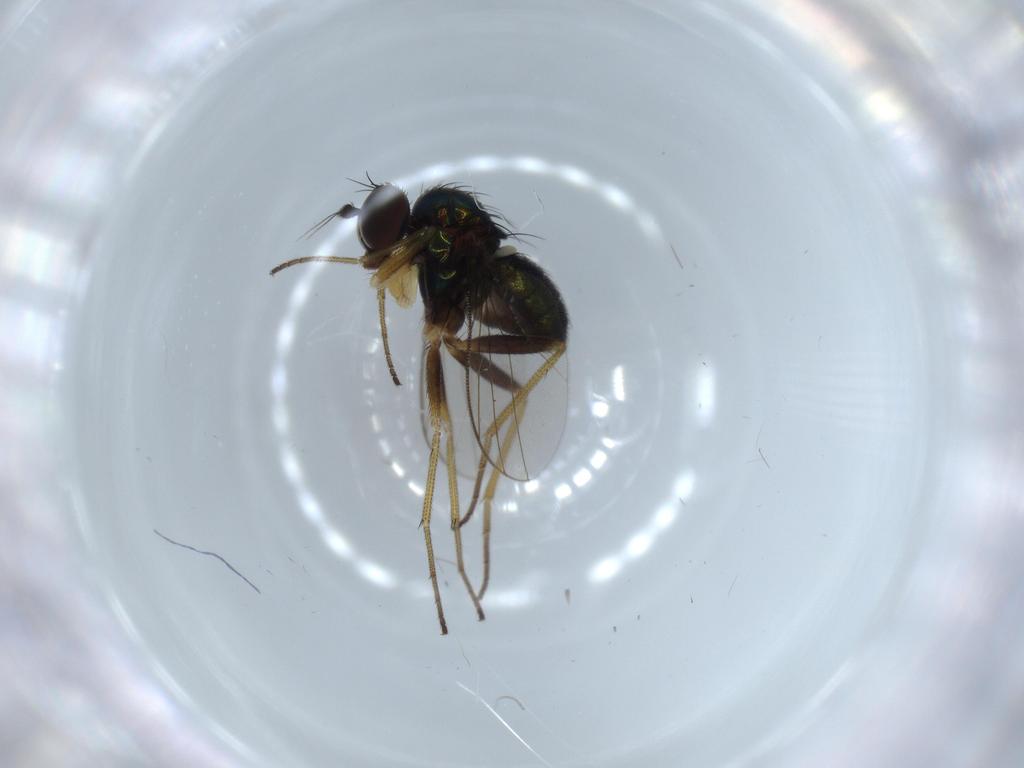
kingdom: Animalia
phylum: Arthropoda
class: Insecta
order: Diptera
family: Dolichopodidae
